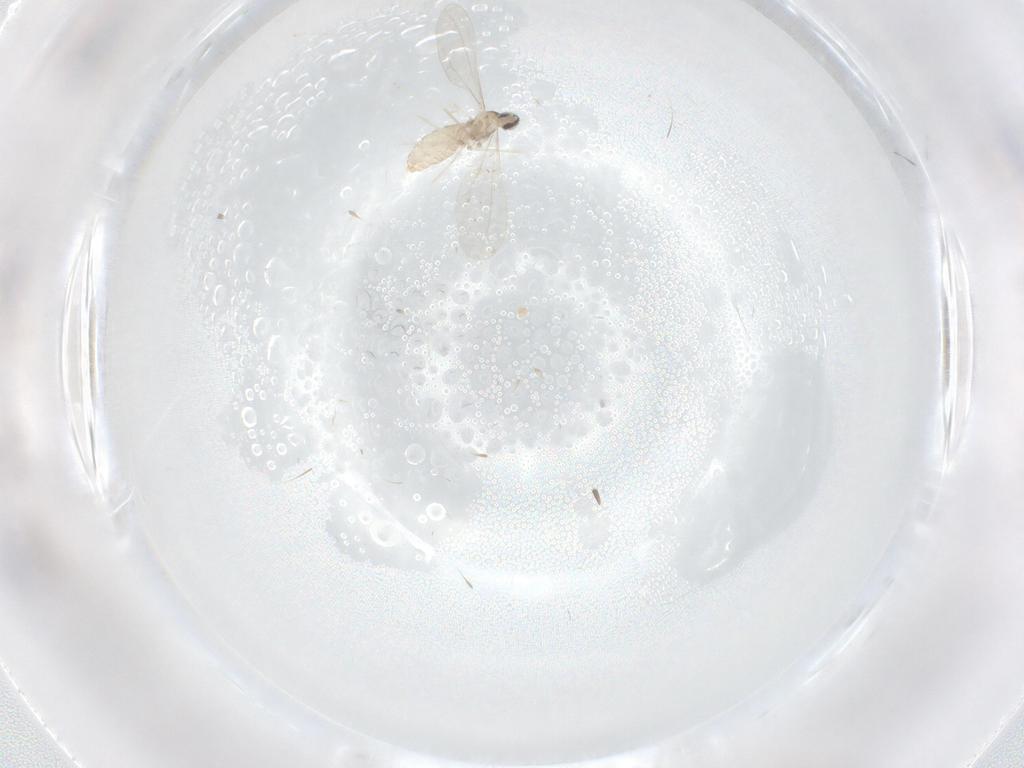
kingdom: Animalia
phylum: Arthropoda
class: Insecta
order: Diptera
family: Cecidomyiidae
